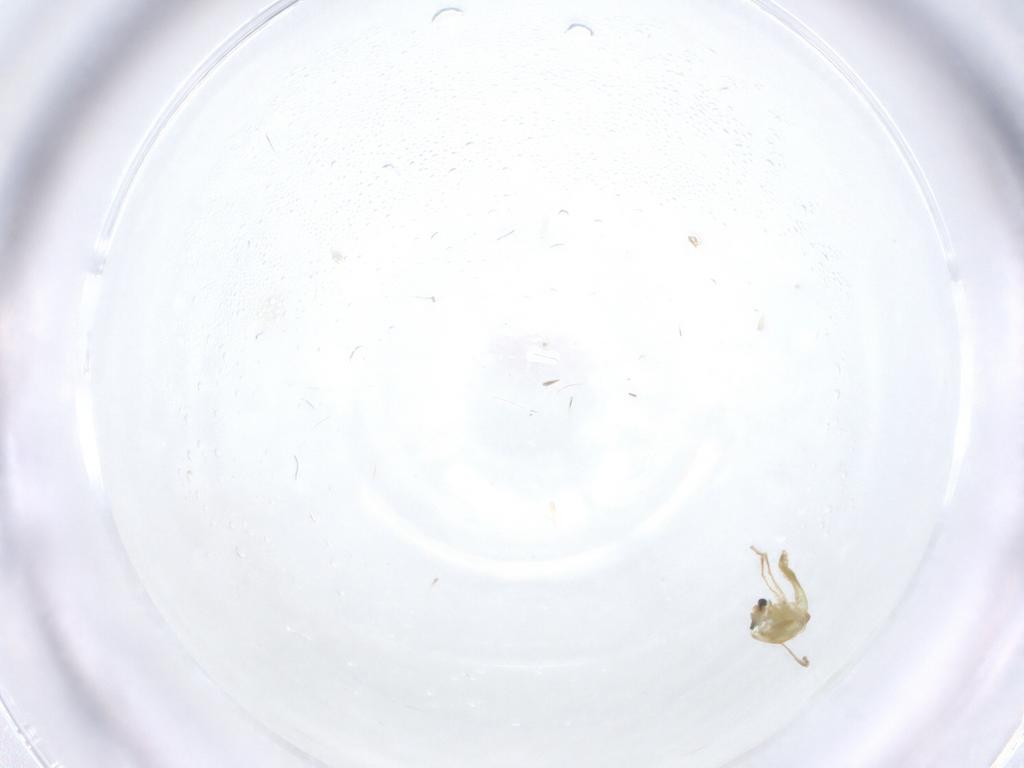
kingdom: Animalia
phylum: Arthropoda
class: Insecta
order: Diptera
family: Chironomidae
